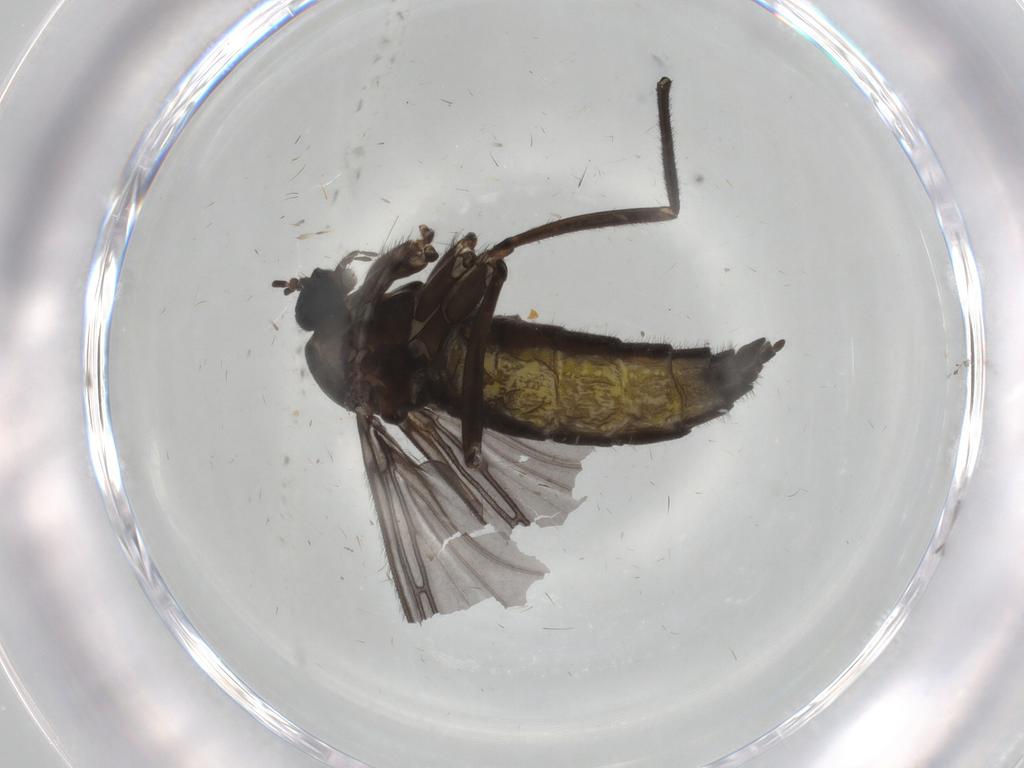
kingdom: Animalia
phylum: Arthropoda
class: Insecta
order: Diptera
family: Sciaridae
